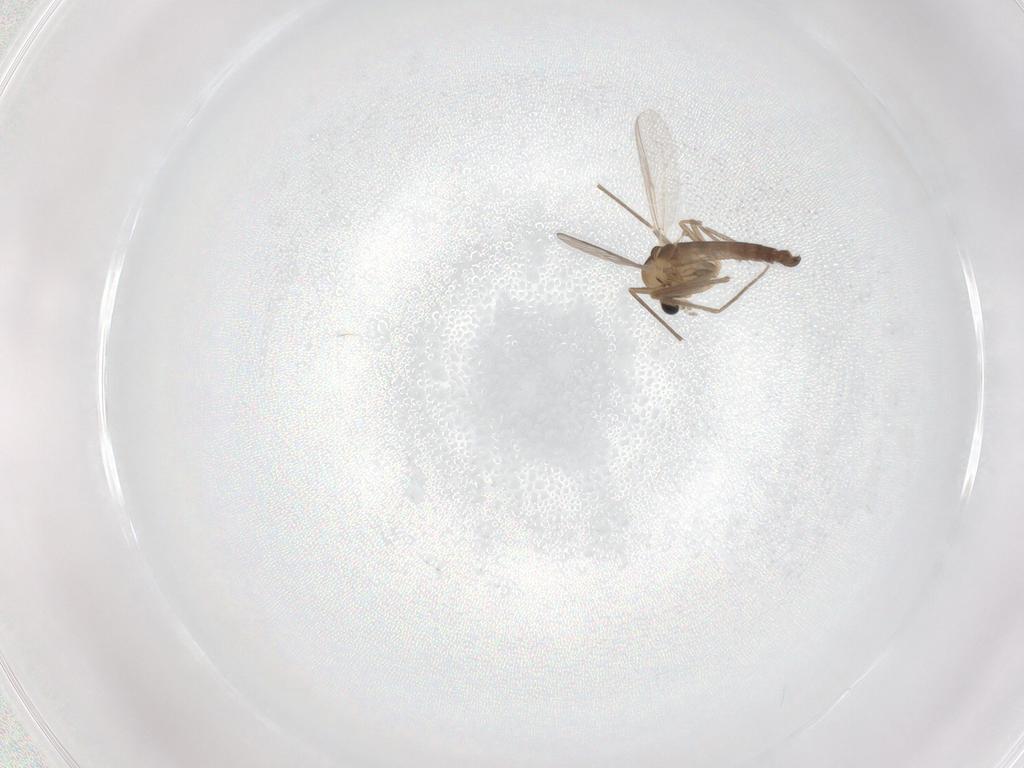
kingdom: Animalia
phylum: Arthropoda
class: Insecta
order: Diptera
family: Chironomidae
